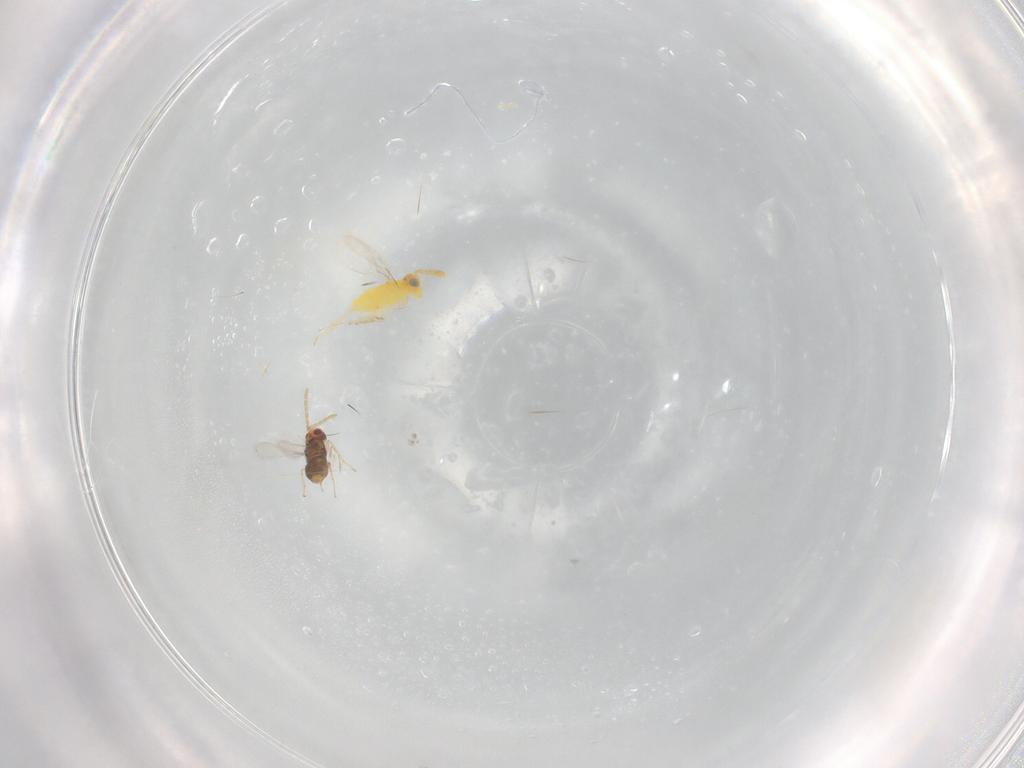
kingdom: Animalia
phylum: Arthropoda
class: Insecta
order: Hymenoptera
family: Aphelinidae
